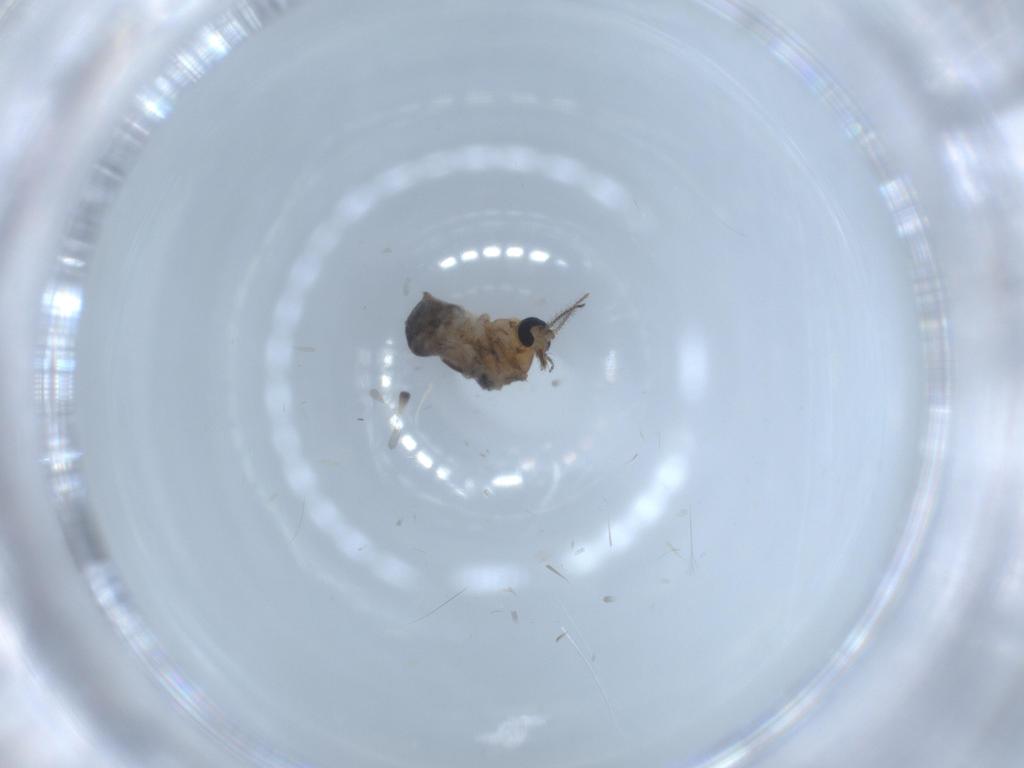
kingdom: Animalia
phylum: Arthropoda
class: Insecta
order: Diptera
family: Ceratopogonidae
